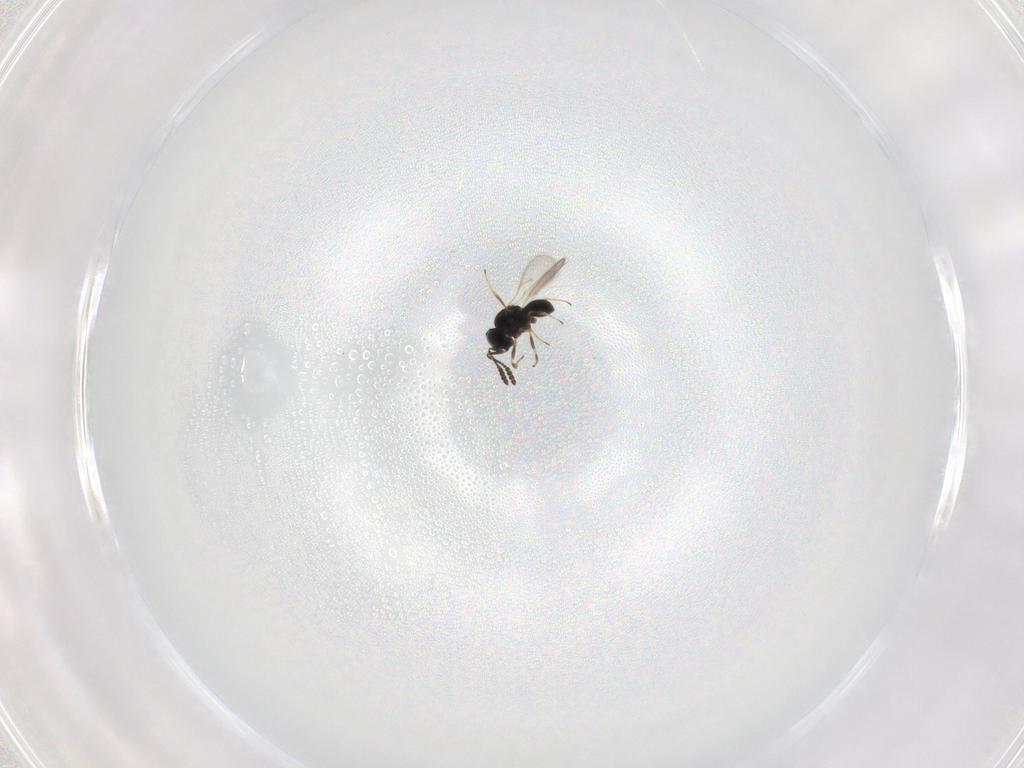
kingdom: Animalia
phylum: Arthropoda
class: Insecta
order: Hymenoptera
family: Scelionidae
